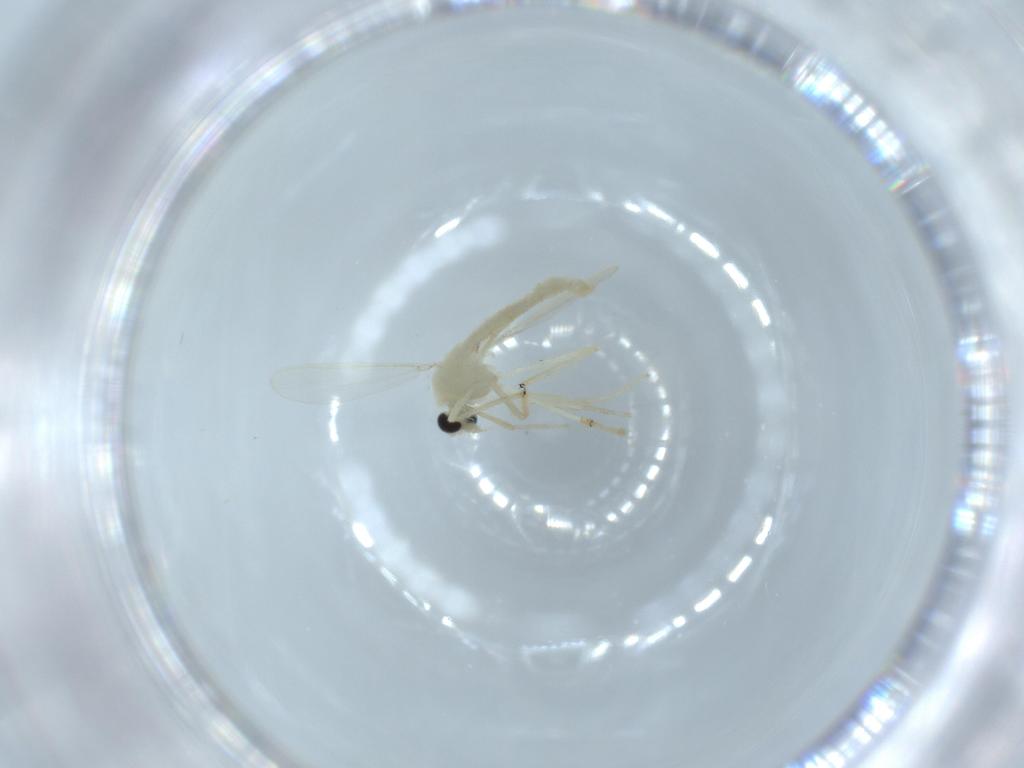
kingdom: Animalia
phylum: Arthropoda
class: Insecta
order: Diptera
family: Chironomidae
